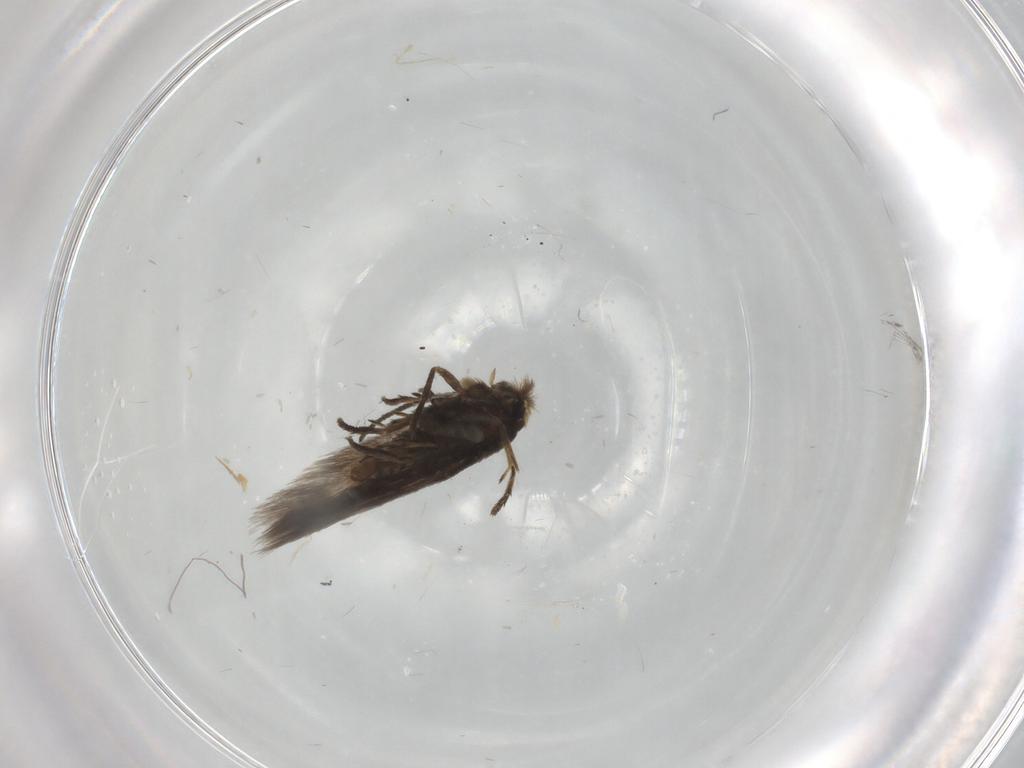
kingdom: Animalia
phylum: Arthropoda
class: Insecta
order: Lepidoptera
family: Nepticulidae
